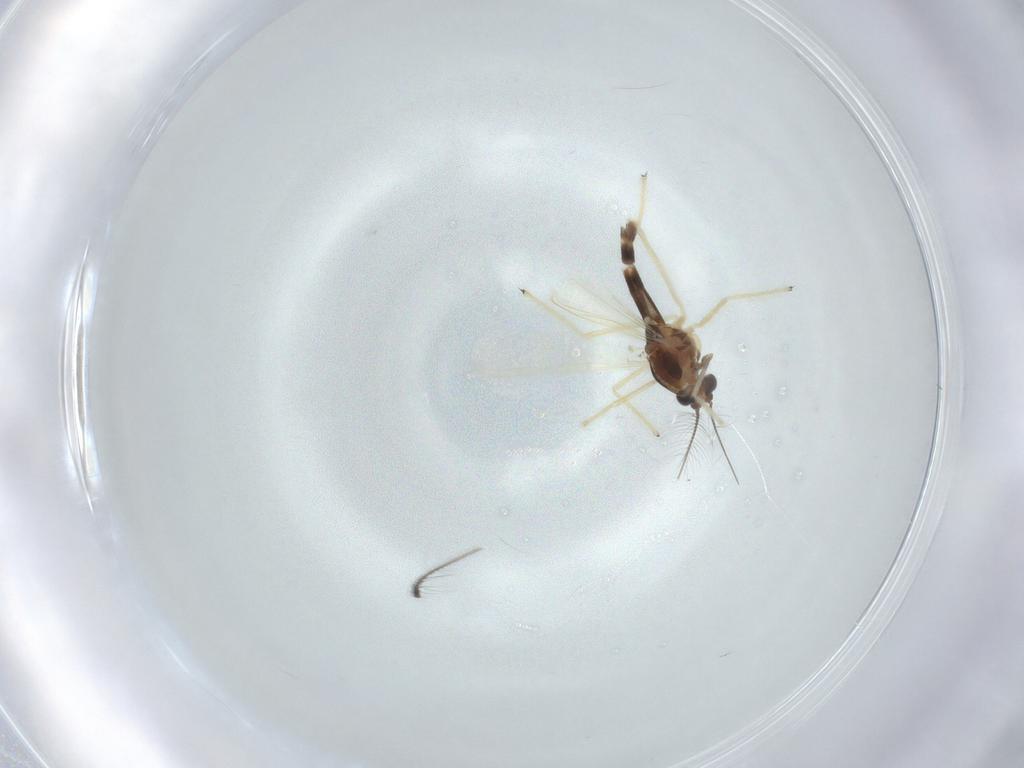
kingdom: Animalia
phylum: Arthropoda
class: Insecta
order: Diptera
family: Chironomidae
